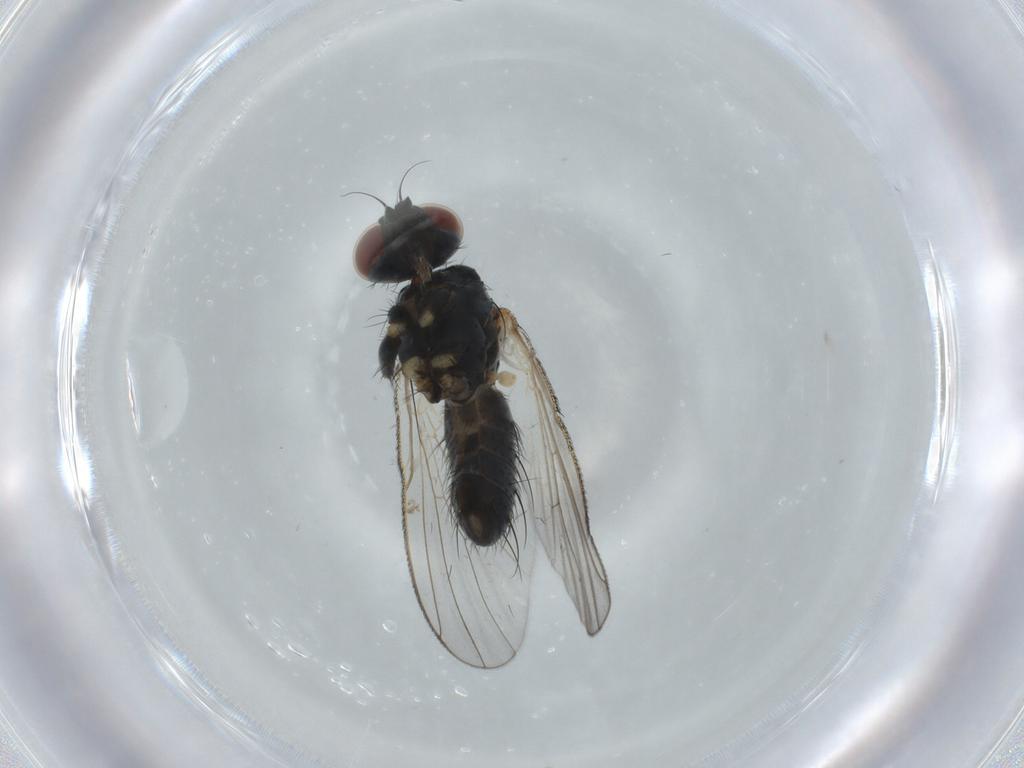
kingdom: Animalia
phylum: Arthropoda
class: Insecta
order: Diptera
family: Muscidae
